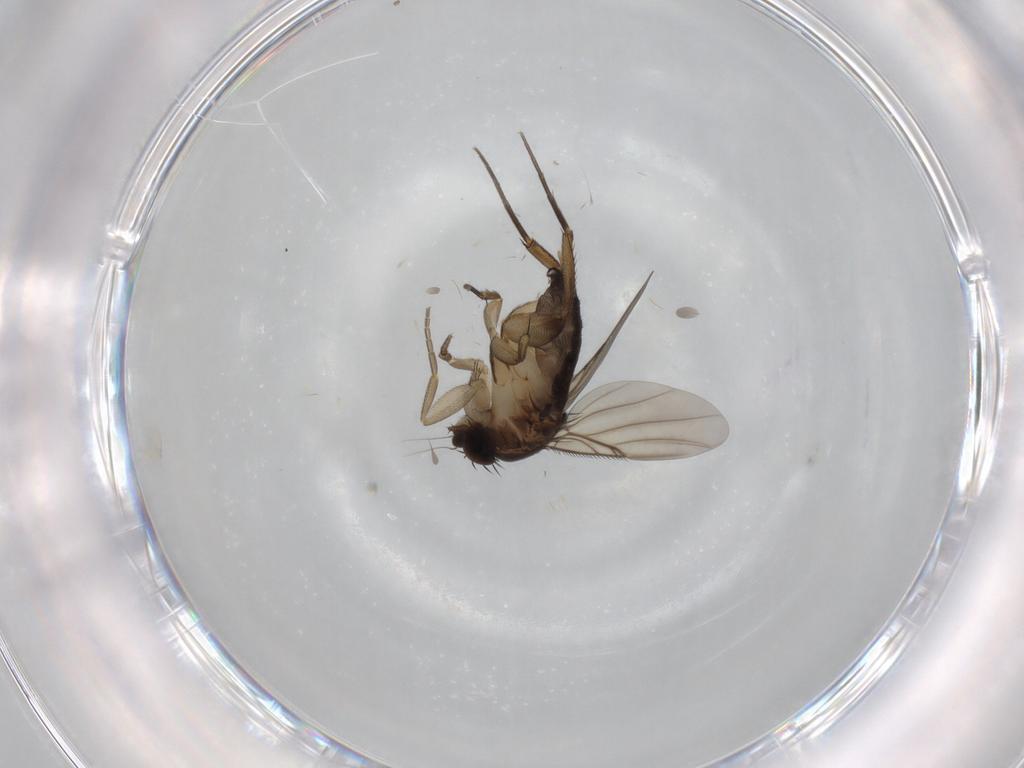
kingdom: Animalia
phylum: Arthropoda
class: Insecta
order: Diptera
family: Phoridae
